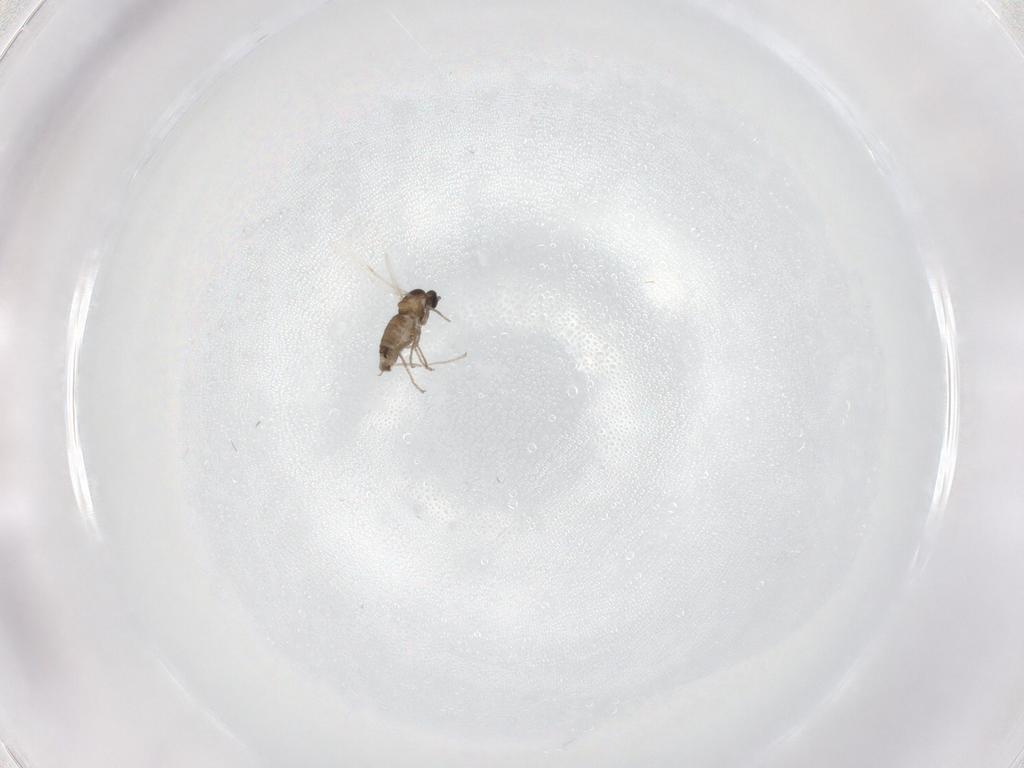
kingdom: Animalia
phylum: Arthropoda
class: Insecta
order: Diptera
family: Cecidomyiidae
